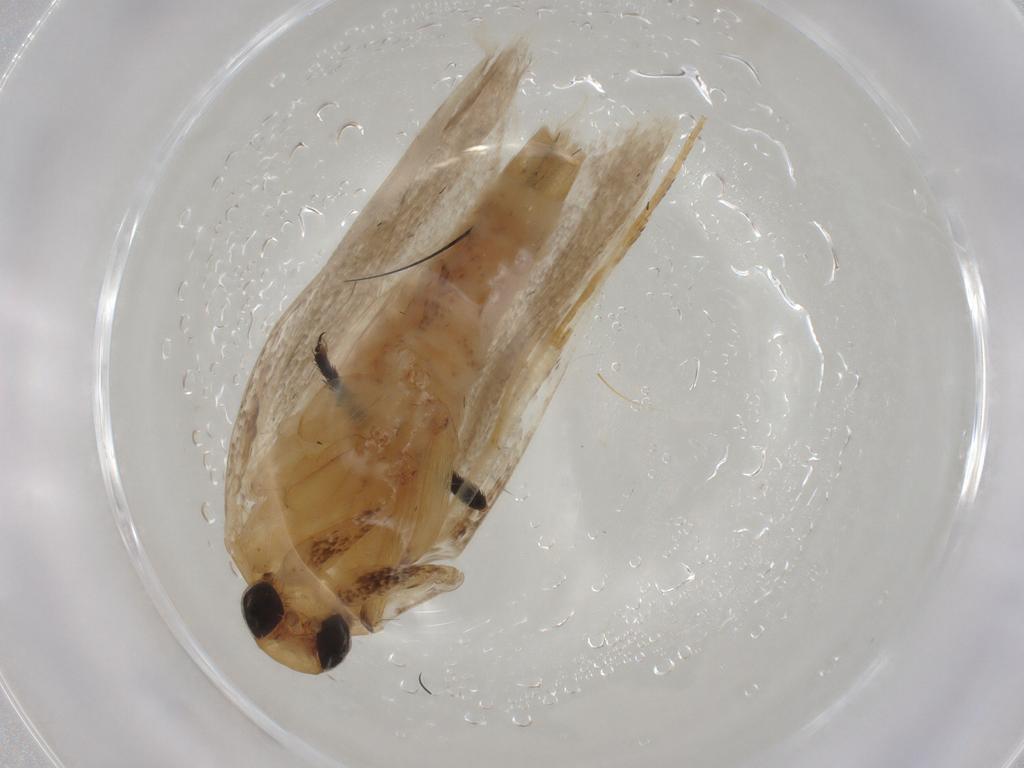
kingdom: Animalia
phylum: Arthropoda
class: Insecta
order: Lepidoptera
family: Gelechiidae
